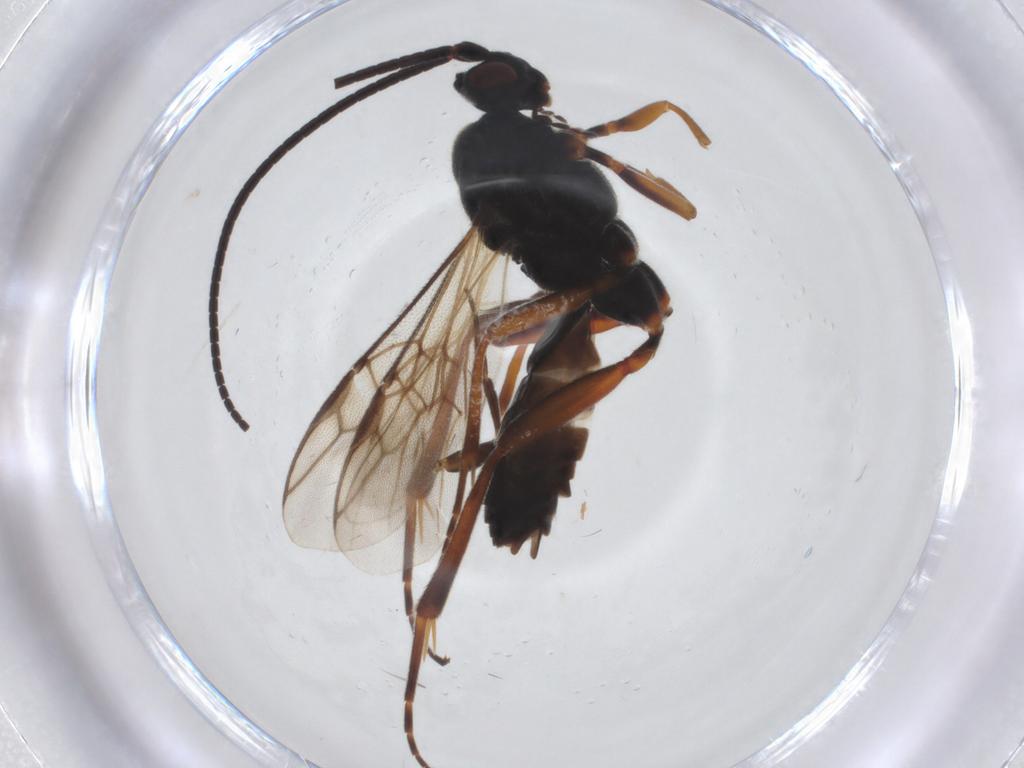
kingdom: Animalia
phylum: Arthropoda
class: Insecta
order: Hymenoptera
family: Braconidae
